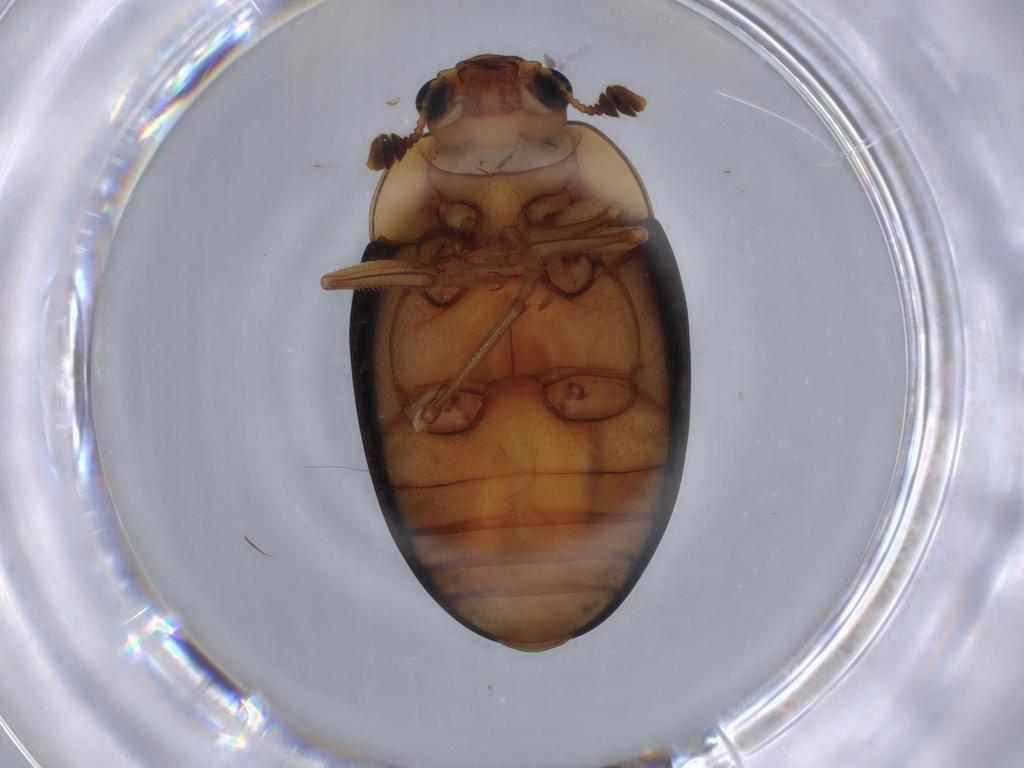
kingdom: Animalia
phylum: Arthropoda
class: Insecta
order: Coleoptera
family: Erotylidae
